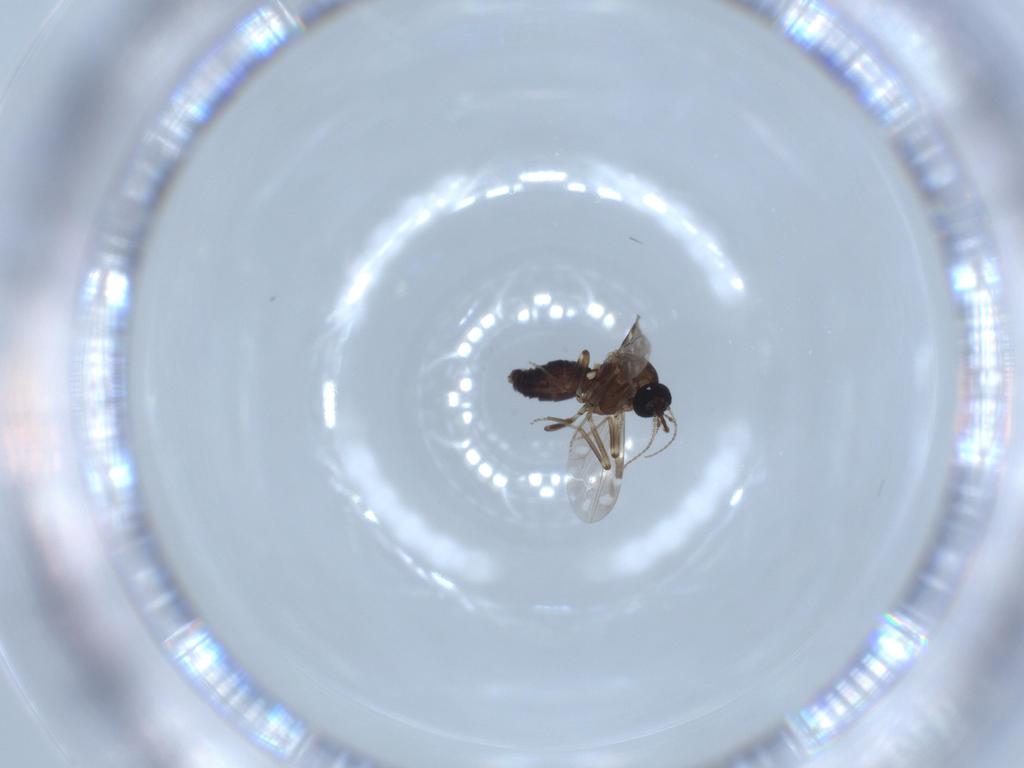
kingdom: Animalia
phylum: Arthropoda
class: Insecta
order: Diptera
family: Ceratopogonidae
